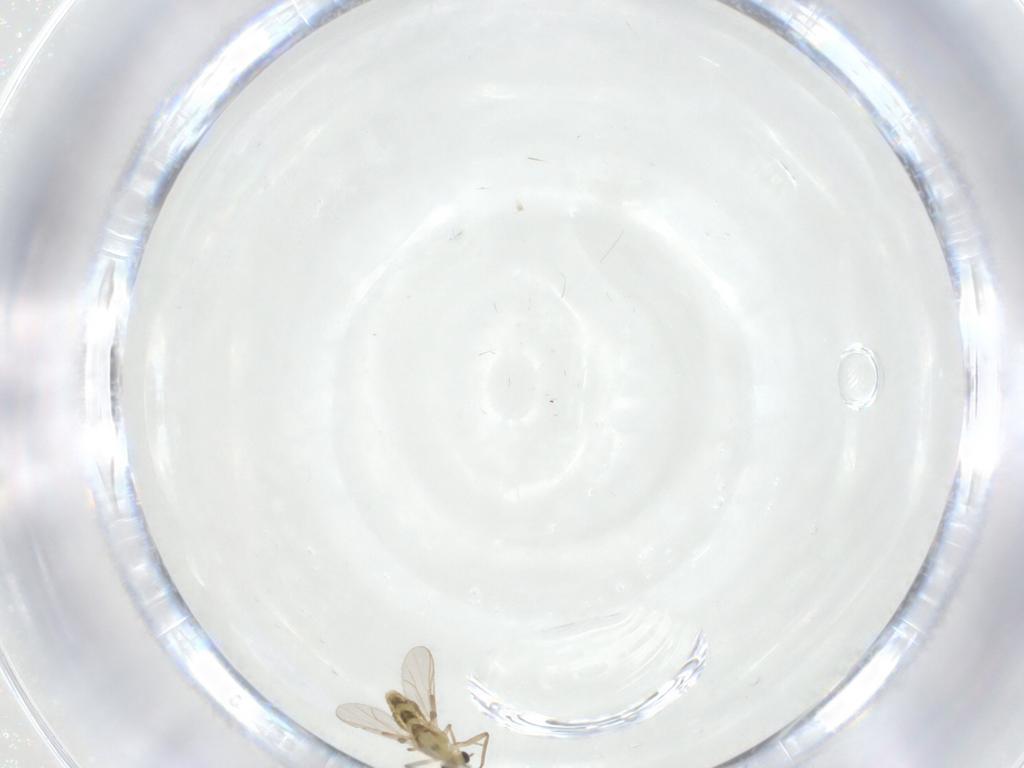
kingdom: Animalia
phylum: Arthropoda
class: Insecta
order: Diptera
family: Chironomidae
